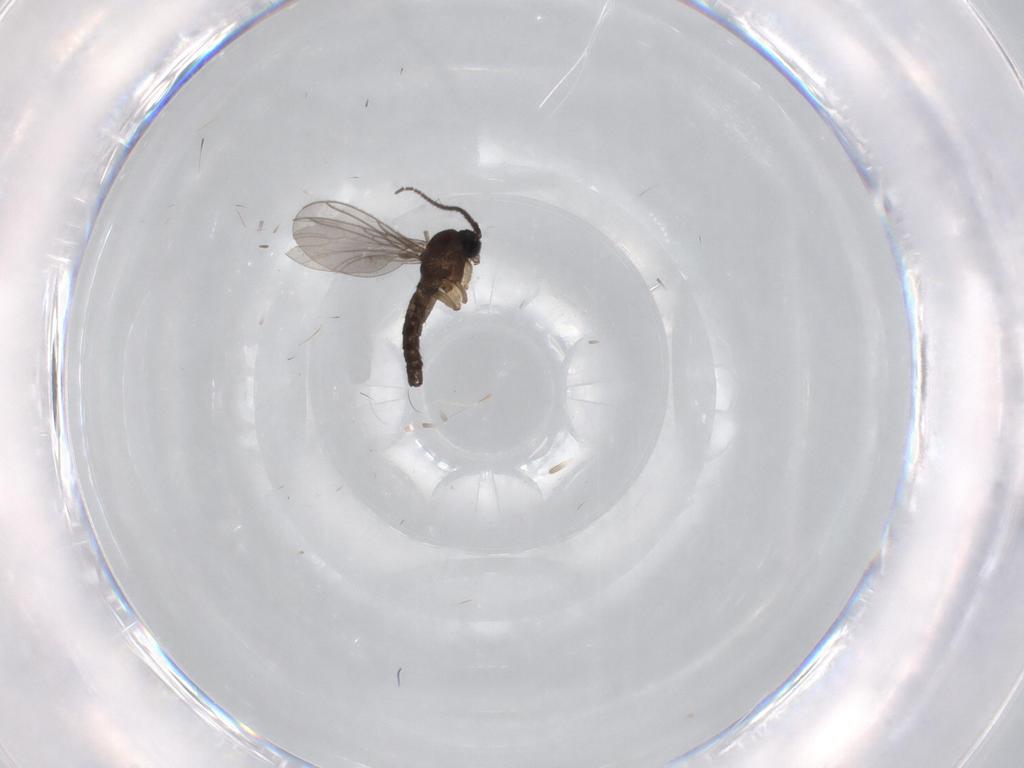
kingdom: Animalia
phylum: Arthropoda
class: Insecta
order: Diptera
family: Sciaridae
